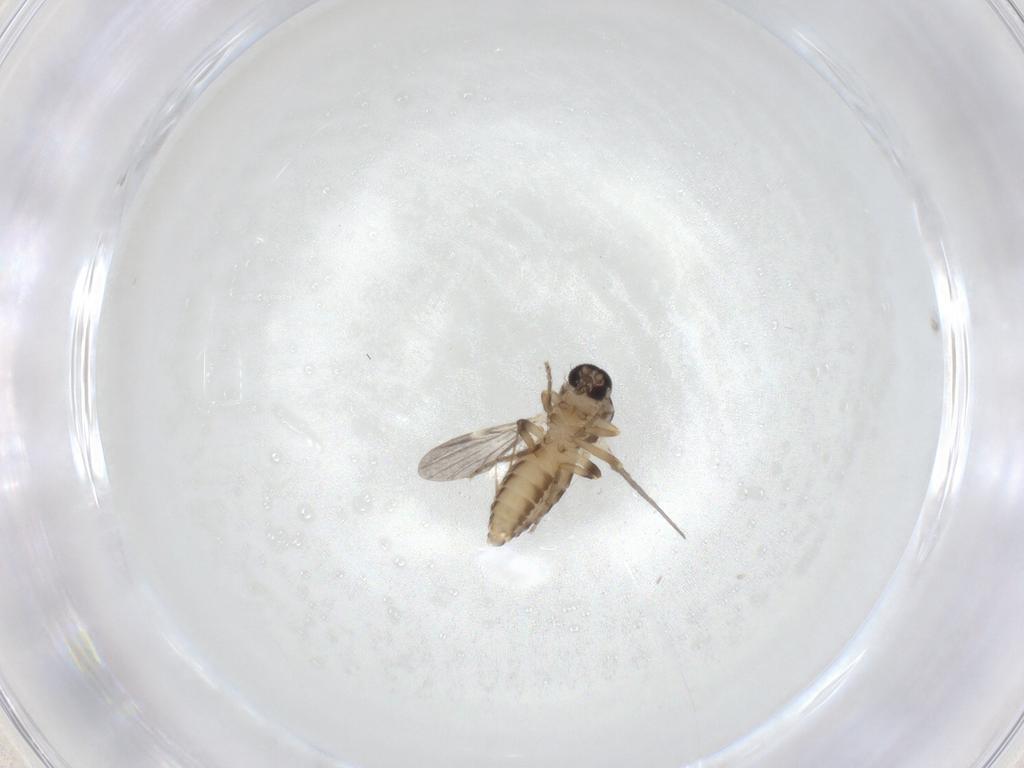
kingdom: Animalia
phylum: Arthropoda
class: Insecta
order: Diptera
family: Ceratopogonidae
